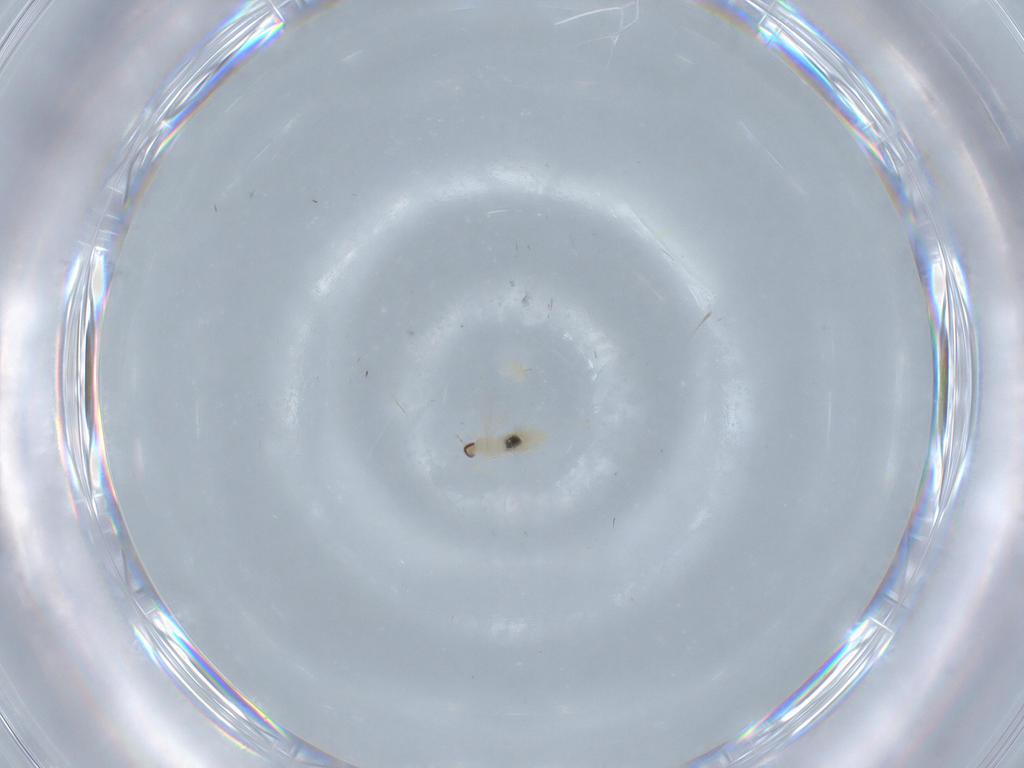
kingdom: Animalia
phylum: Arthropoda
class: Insecta
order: Diptera
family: Cecidomyiidae
